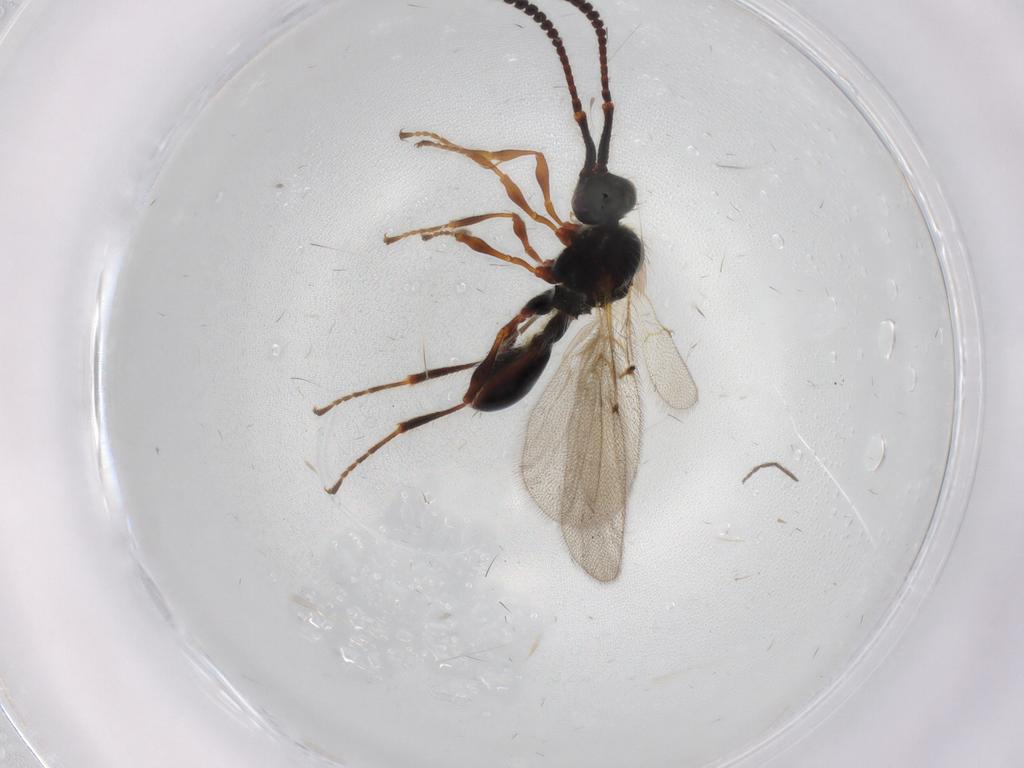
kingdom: Animalia
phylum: Arthropoda
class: Insecta
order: Hymenoptera
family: Diapriidae
